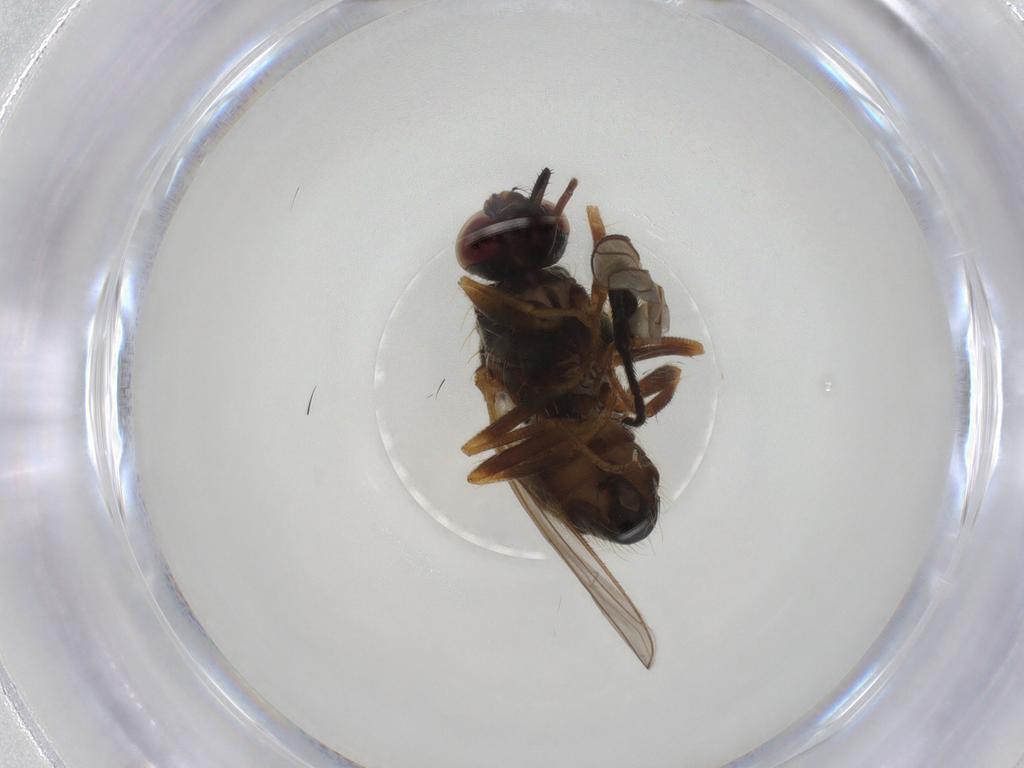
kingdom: Animalia
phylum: Arthropoda
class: Insecta
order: Diptera
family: Muscidae
